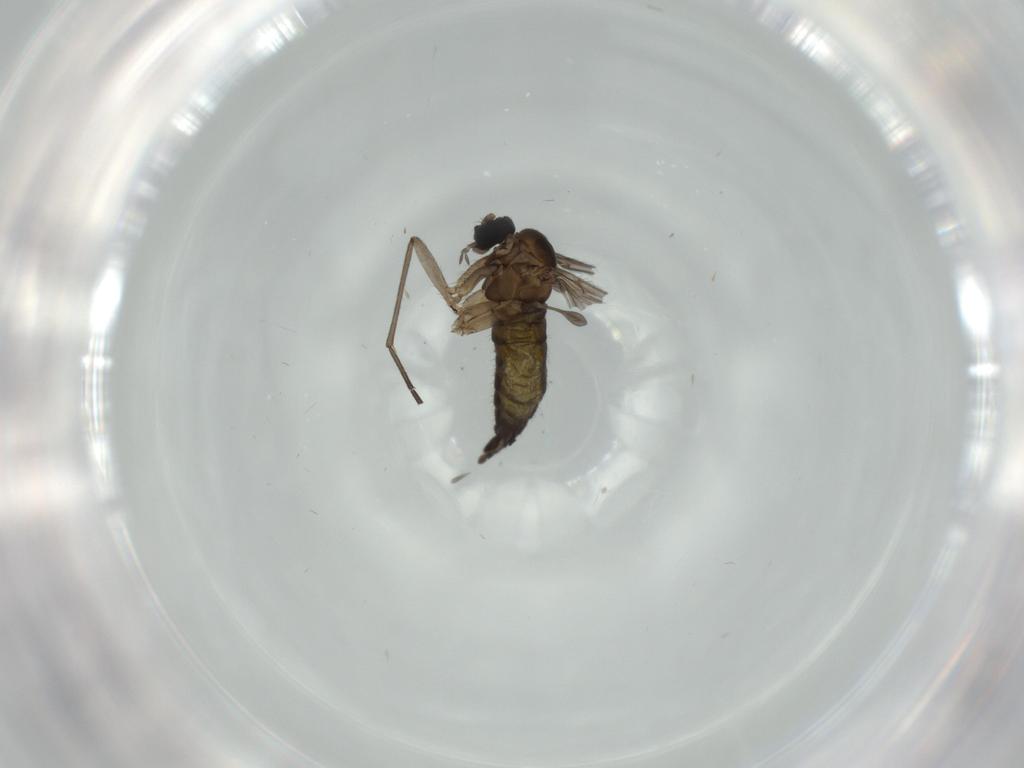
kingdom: Animalia
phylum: Arthropoda
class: Insecta
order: Diptera
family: Sciaridae
